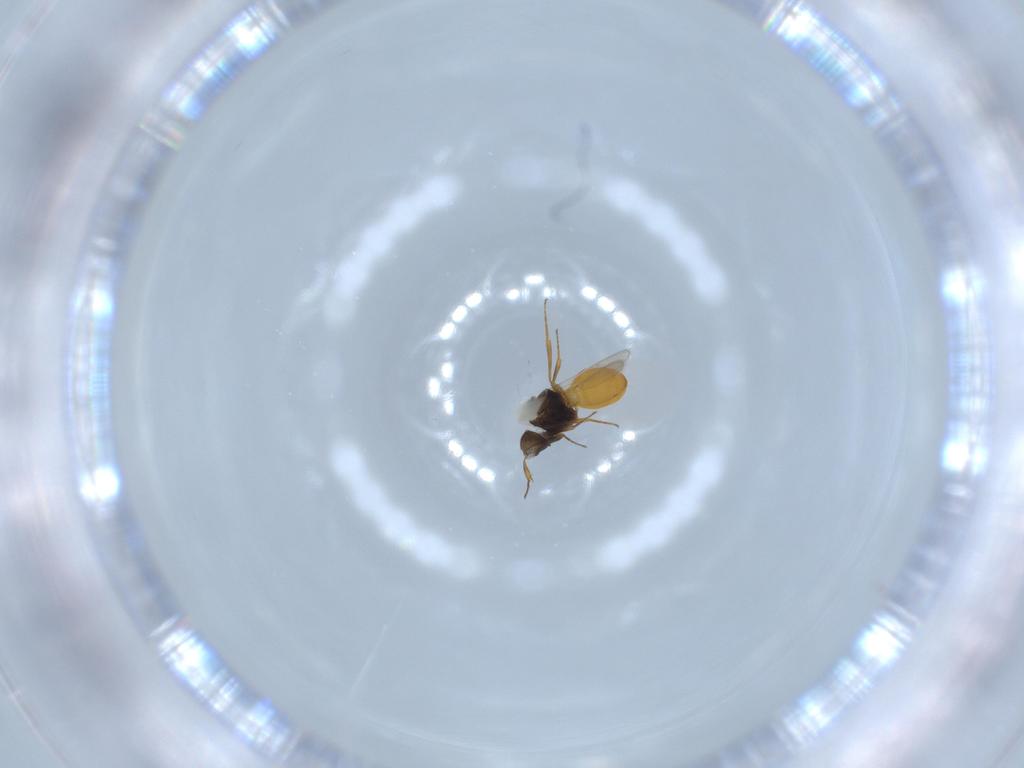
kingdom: Animalia
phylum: Arthropoda
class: Insecta
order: Hymenoptera
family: Scelionidae
